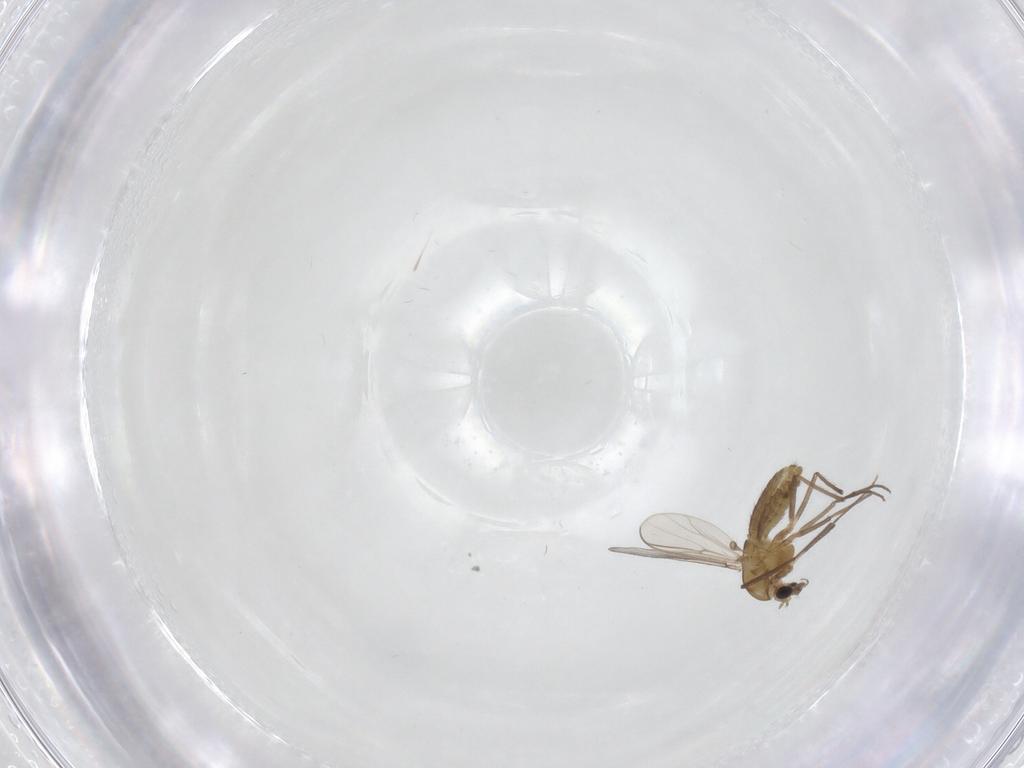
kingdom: Animalia
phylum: Arthropoda
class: Insecta
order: Diptera
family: Cecidomyiidae
